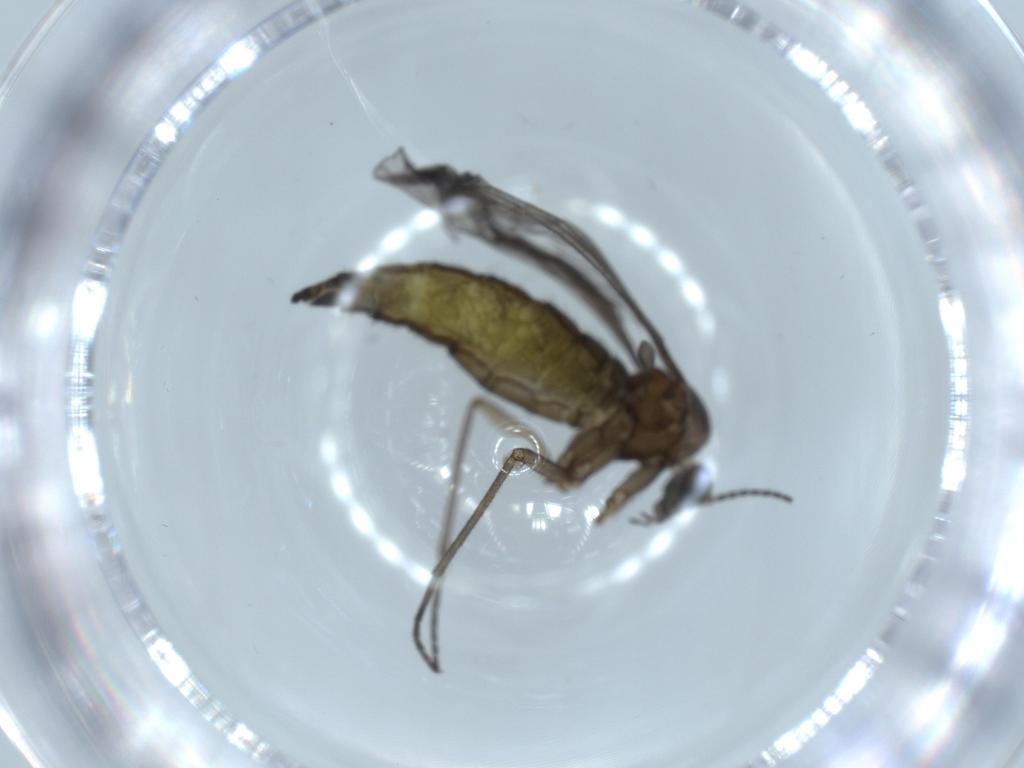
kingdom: Animalia
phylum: Arthropoda
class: Insecta
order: Diptera
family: Sciaridae
